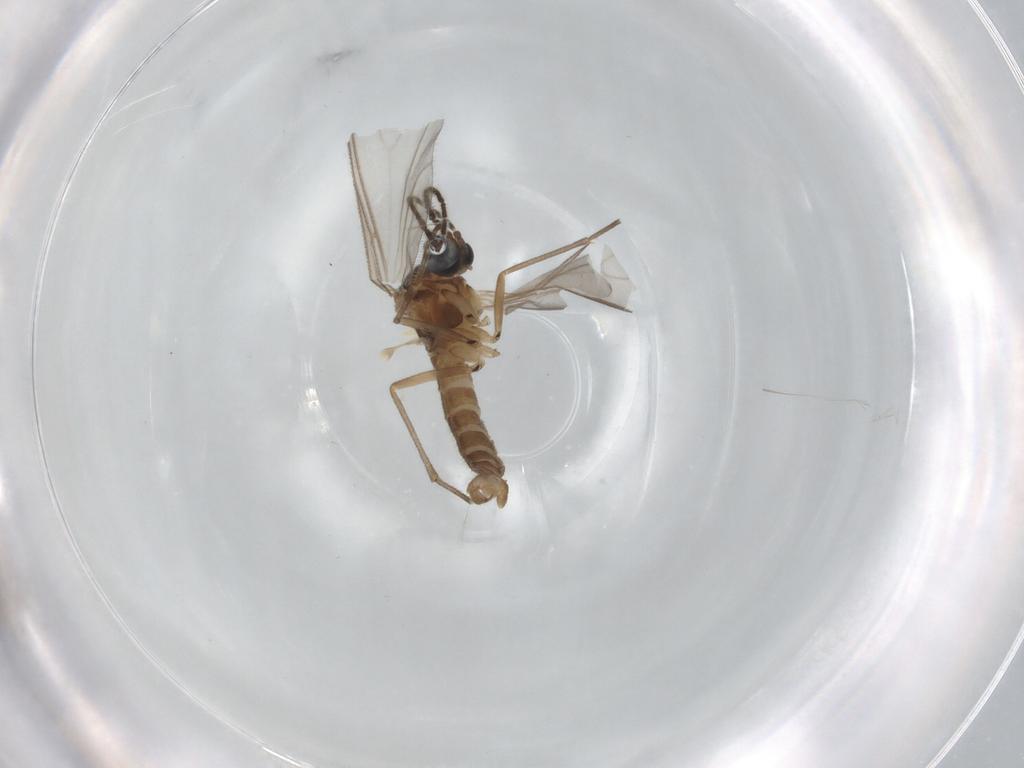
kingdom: Animalia
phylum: Arthropoda
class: Insecta
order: Diptera
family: Sciaridae
